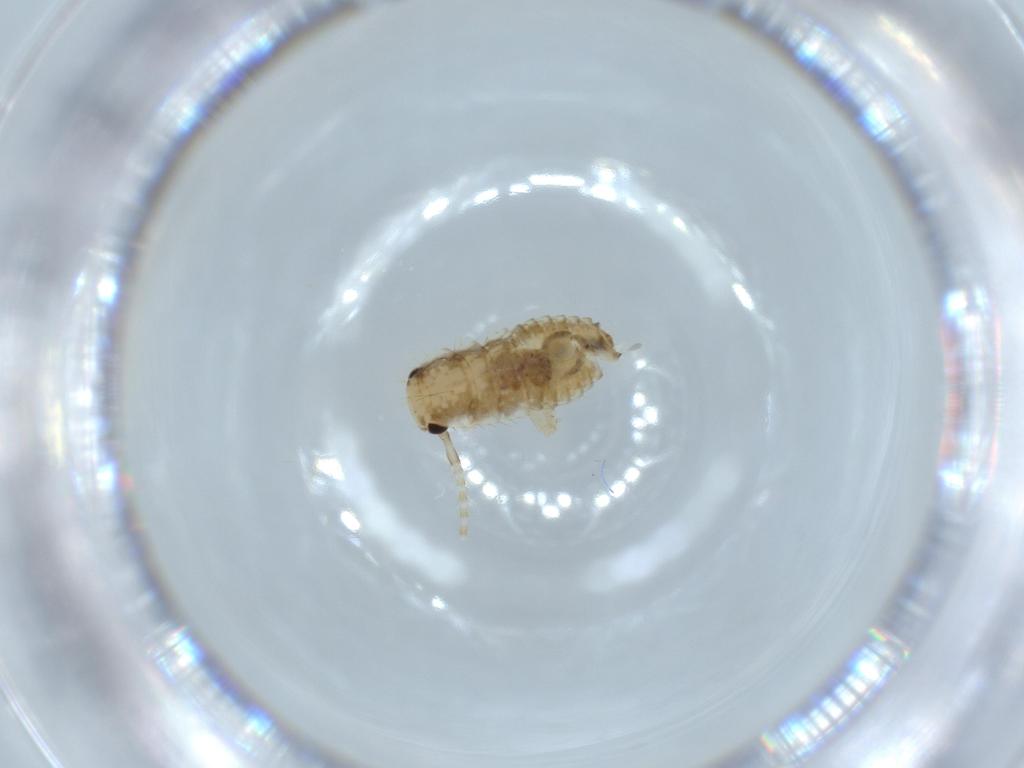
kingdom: Animalia
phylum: Arthropoda
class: Insecta
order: Blattodea
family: Ectobiidae
